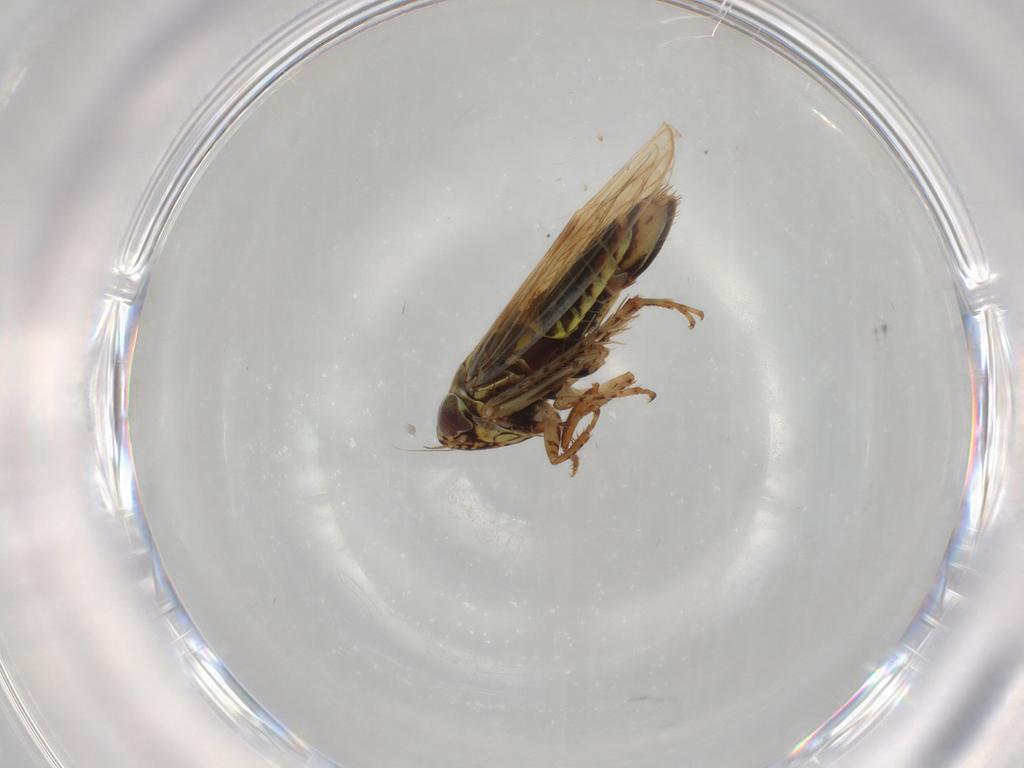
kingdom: Animalia
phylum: Arthropoda
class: Insecta
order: Hemiptera
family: Cicadellidae
